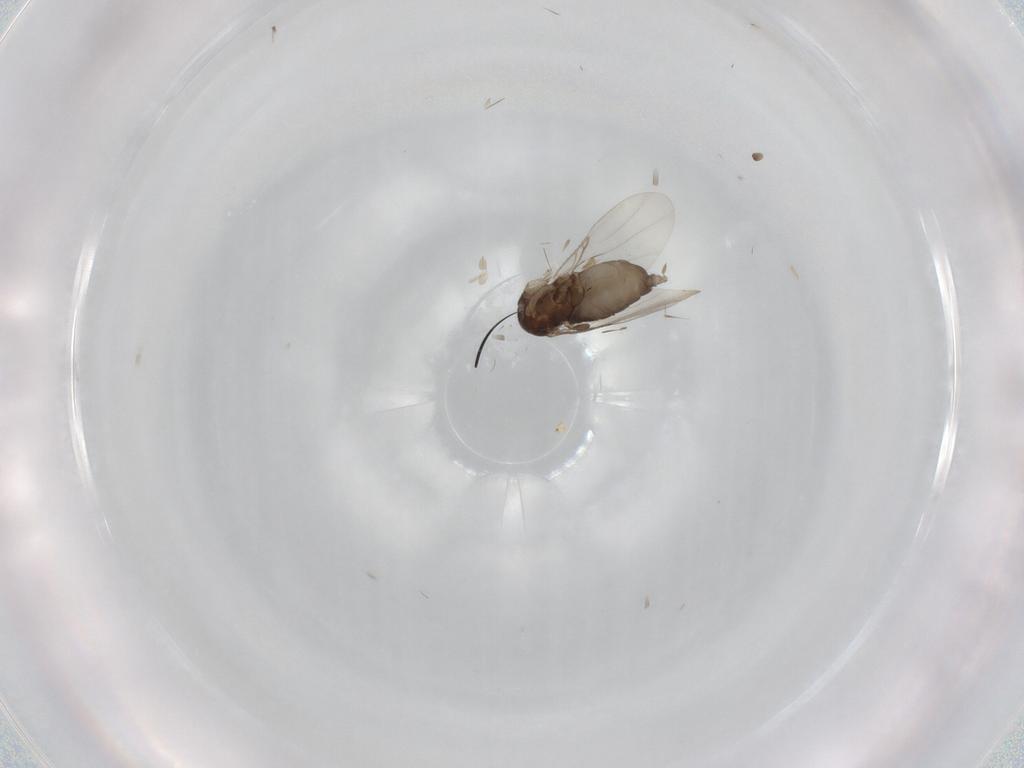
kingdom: Animalia
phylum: Arthropoda
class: Insecta
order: Diptera
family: Phoridae
